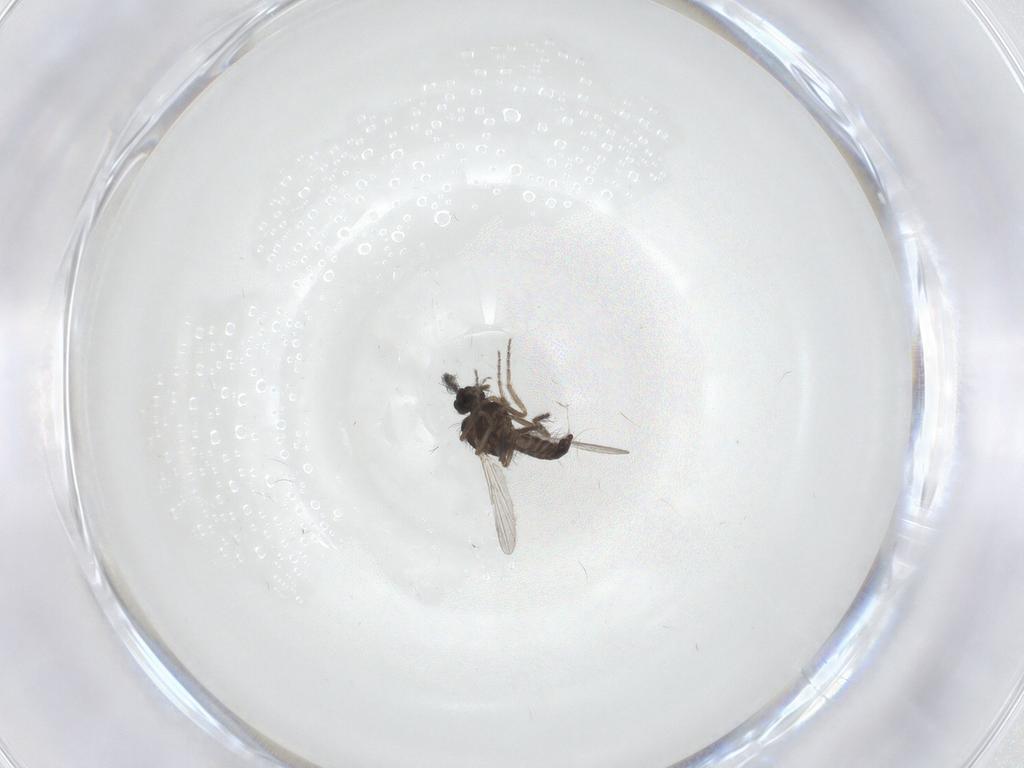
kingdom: Animalia
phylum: Arthropoda
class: Insecta
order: Diptera
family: Ceratopogonidae
